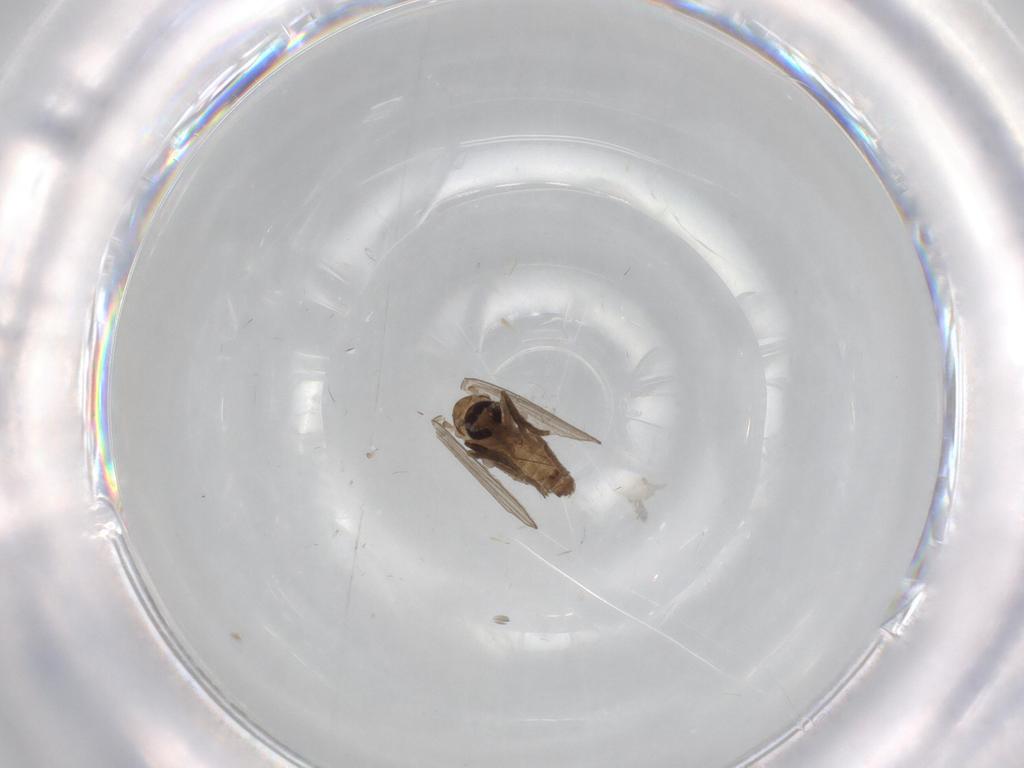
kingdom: Animalia
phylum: Arthropoda
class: Insecta
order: Diptera
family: Psychodidae
